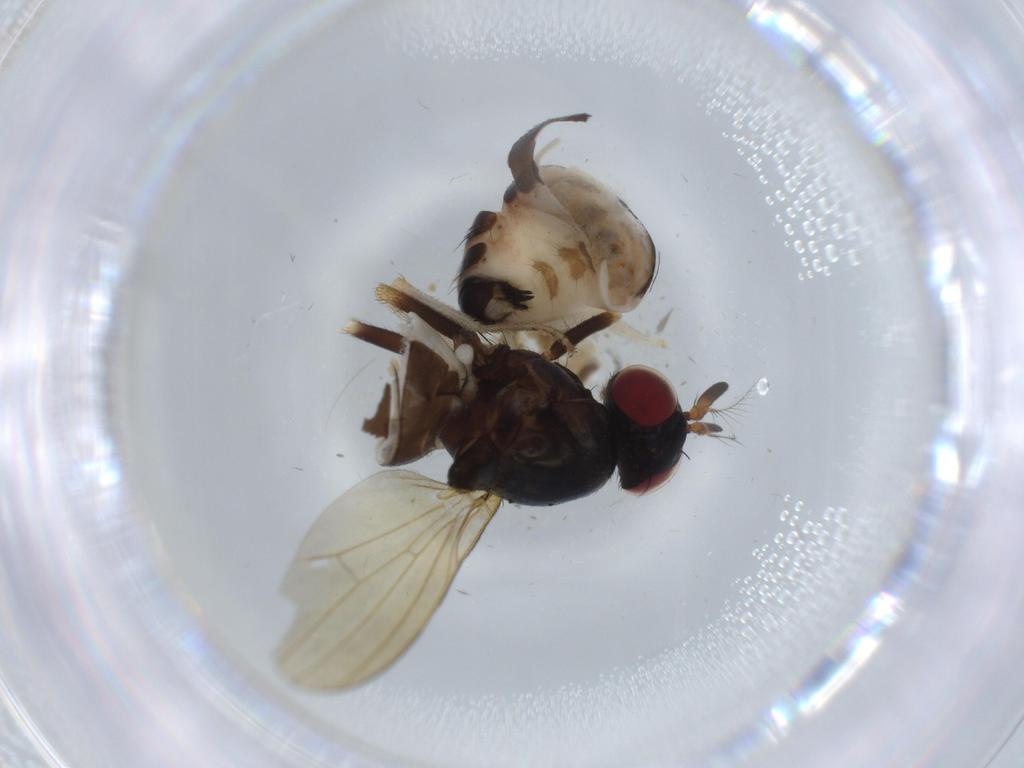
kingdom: Animalia
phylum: Arthropoda
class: Insecta
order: Diptera
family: Lauxaniidae
